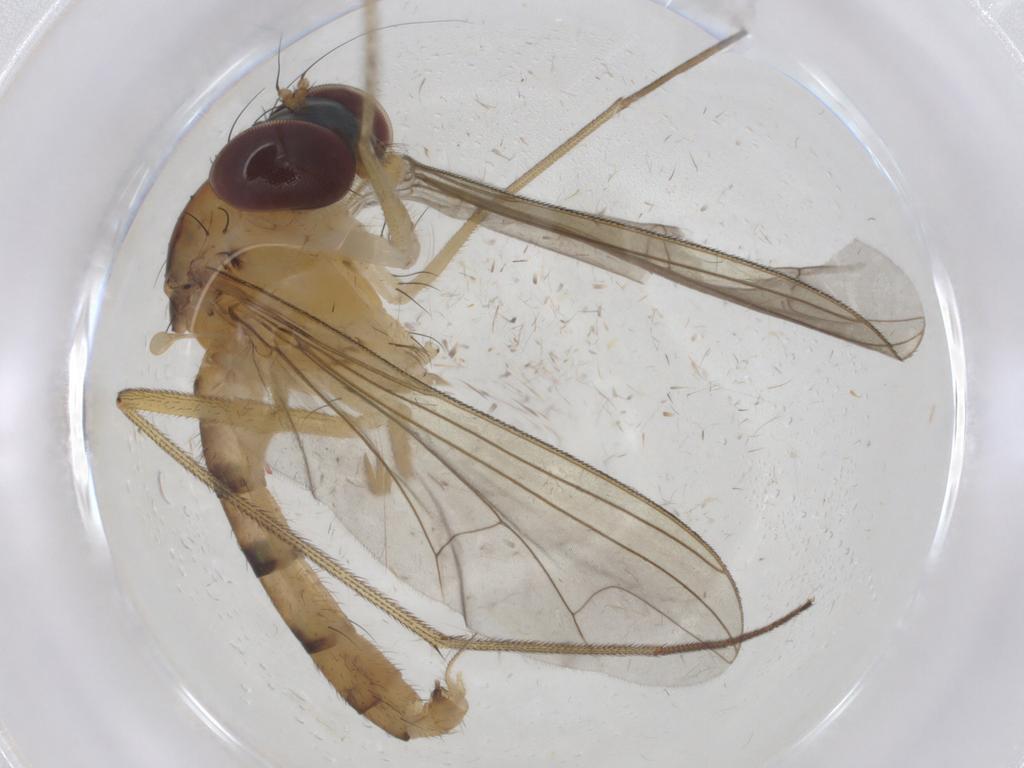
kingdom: Animalia
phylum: Arthropoda
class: Insecta
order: Diptera
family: Dolichopodidae
